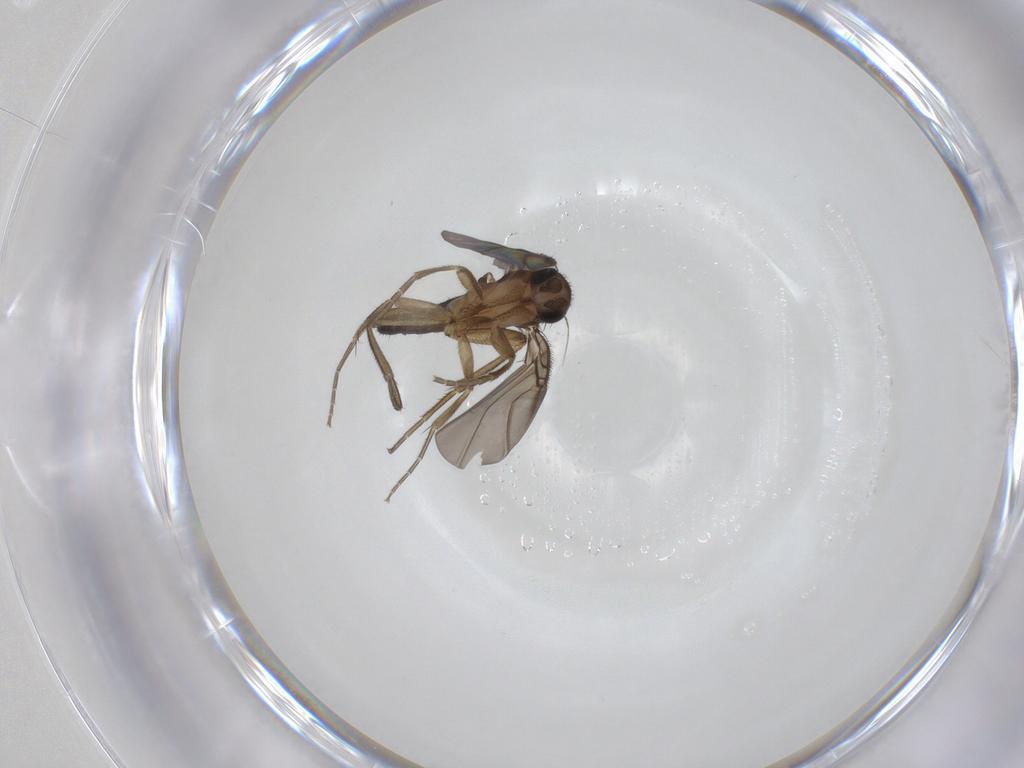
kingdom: Animalia
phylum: Arthropoda
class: Insecta
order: Diptera
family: Phoridae
